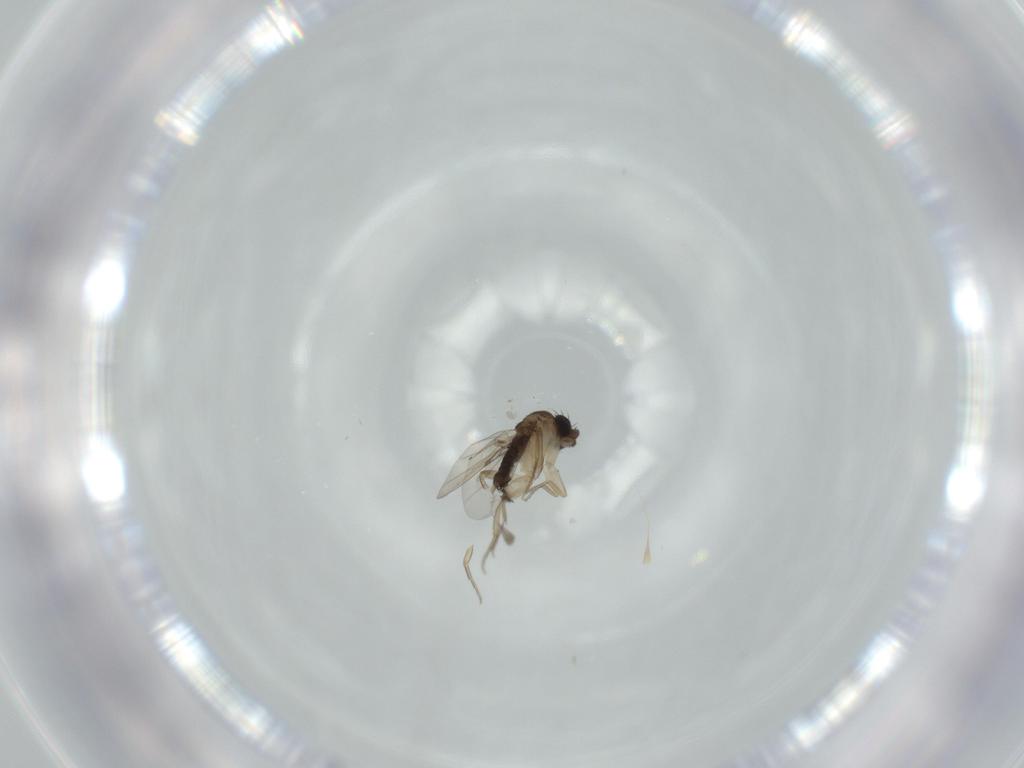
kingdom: Animalia
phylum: Arthropoda
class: Insecta
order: Diptera
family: Phoridae
